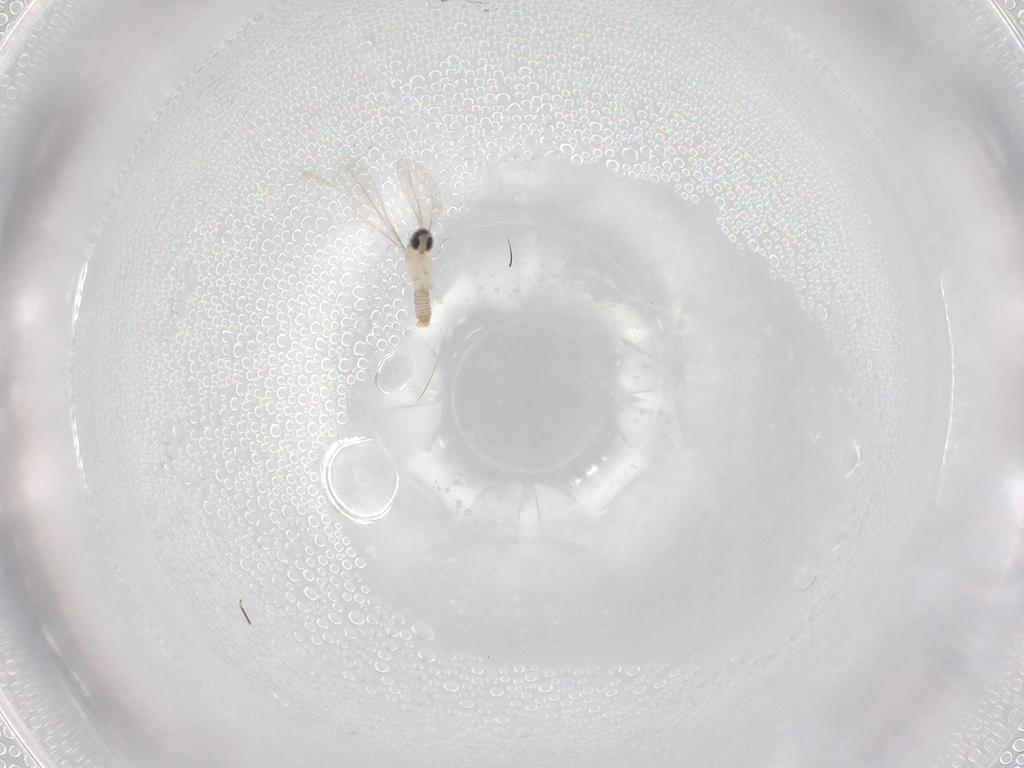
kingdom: Animalia
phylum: Arthropoda
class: Insecta
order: Diptera
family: Cecidomyiidae
